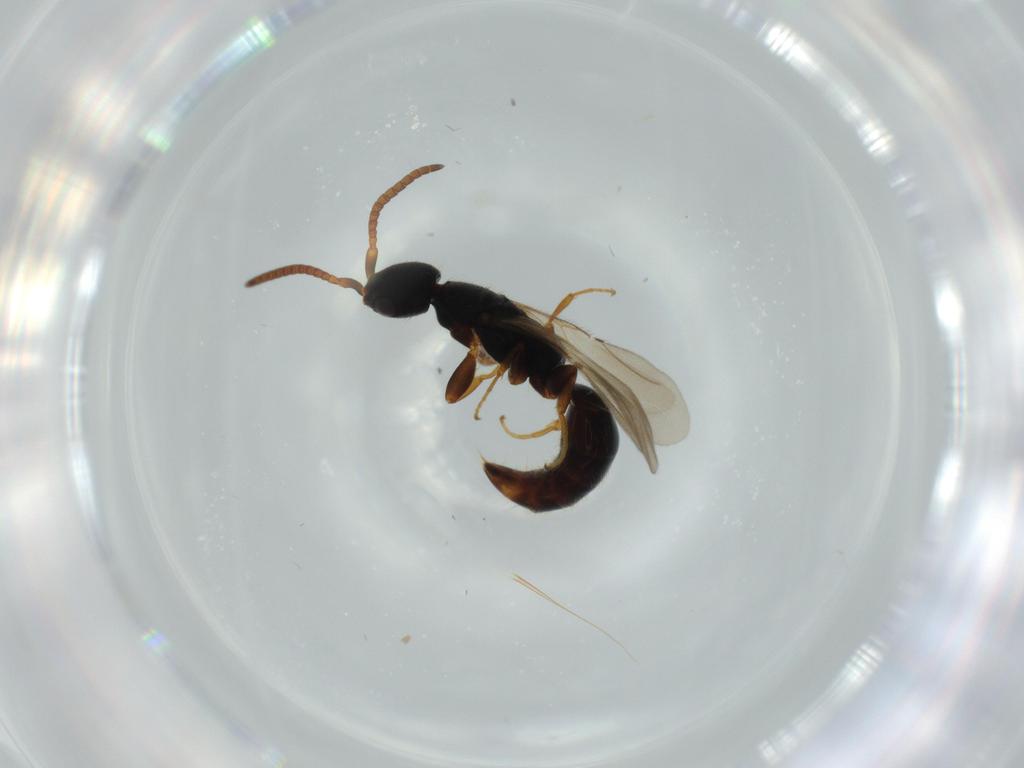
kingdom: Animalia
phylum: Arthropoda
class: Insecta
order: Hymenoptera
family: Bethylidae
